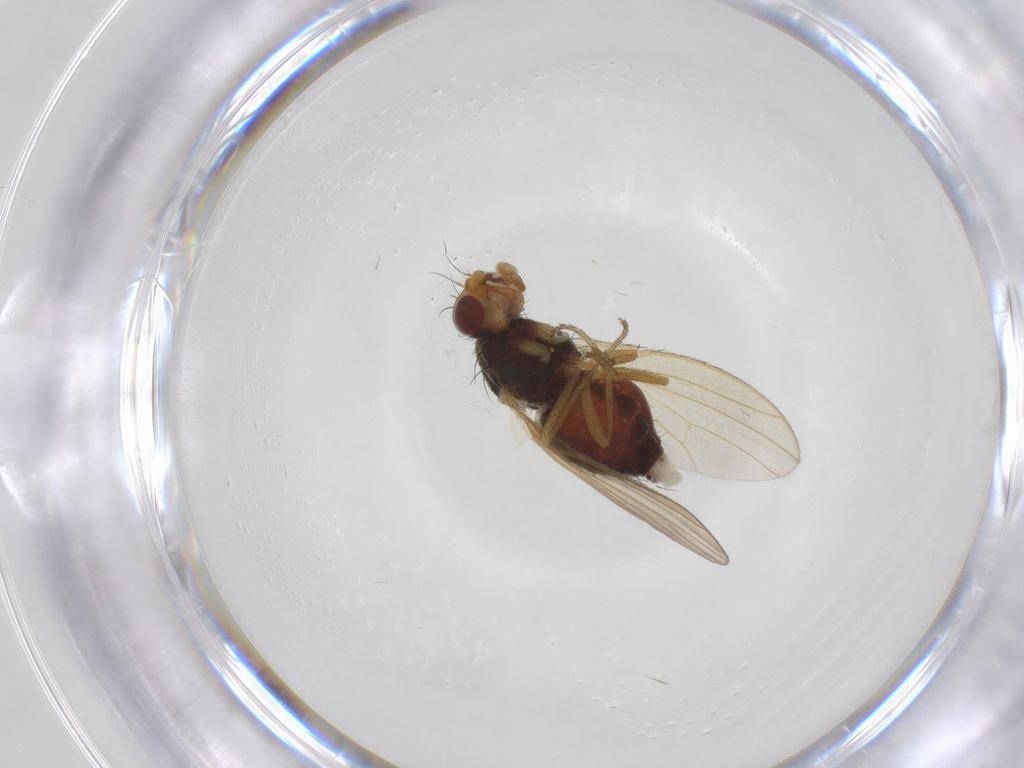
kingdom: Animalia
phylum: Arthropoda
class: Insecta
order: Diptera
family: Heleomyzidae
